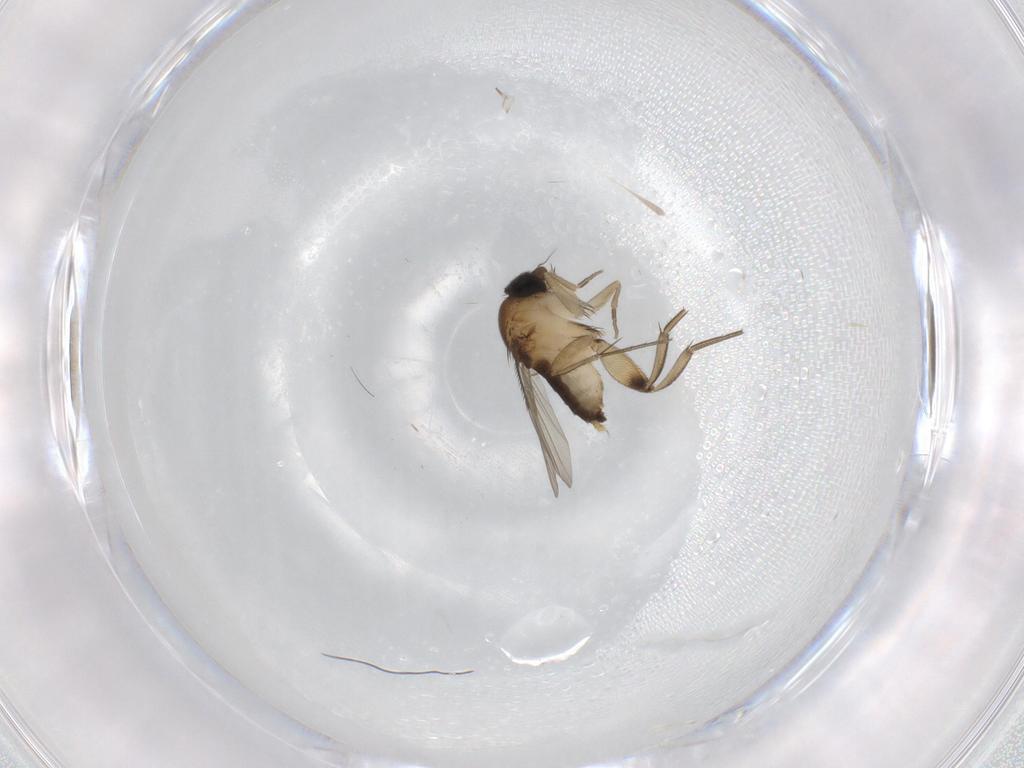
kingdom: Animalia
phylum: Arthropoda
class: Insecta
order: Diptera
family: Phoridae
